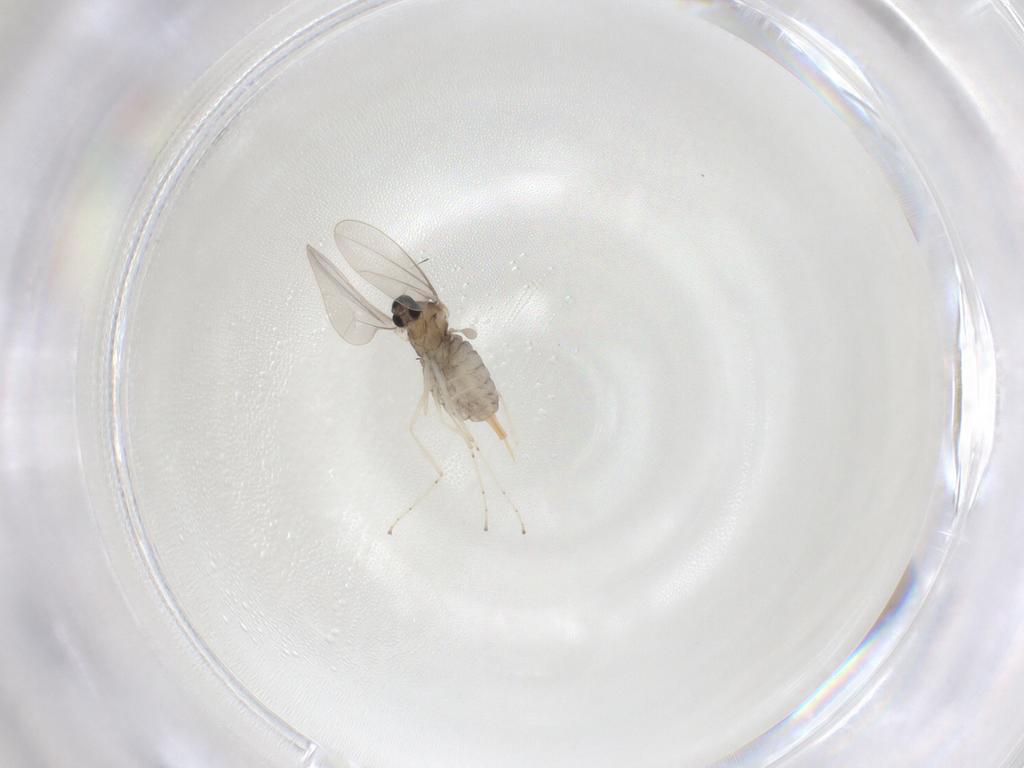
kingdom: Animalia
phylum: Arthropoda
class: Insecta
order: Diptera
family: Cecidomyiidae
